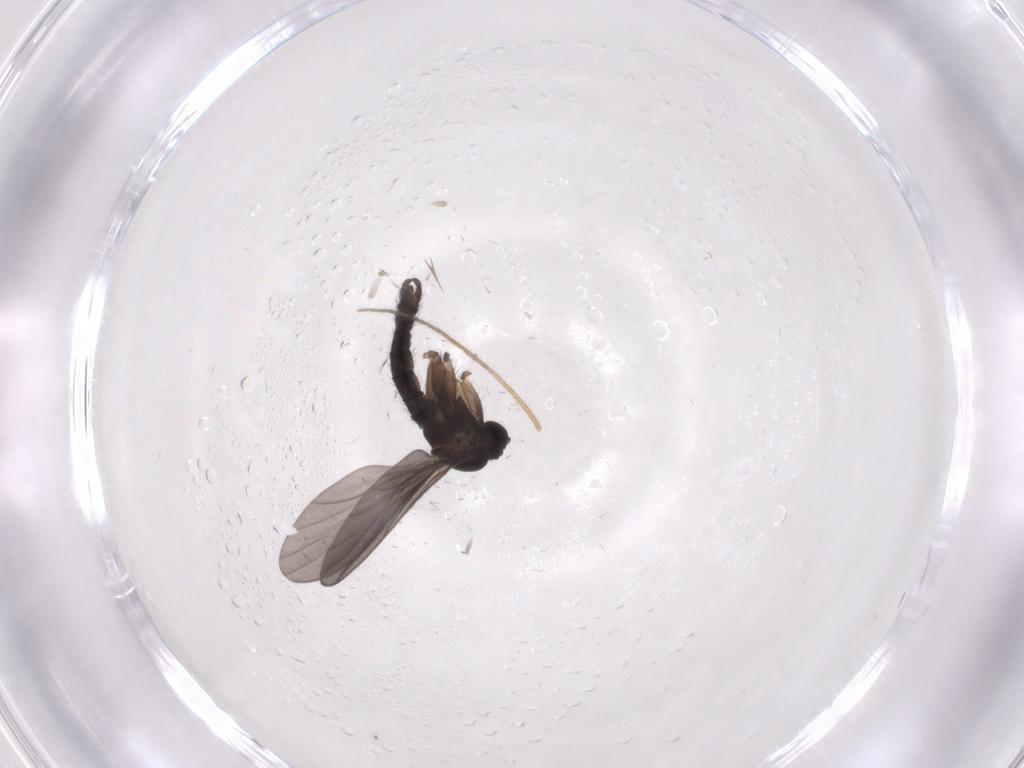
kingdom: Animalia
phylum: Arthropoda
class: Insecta
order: Diptera
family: Sciaridae
